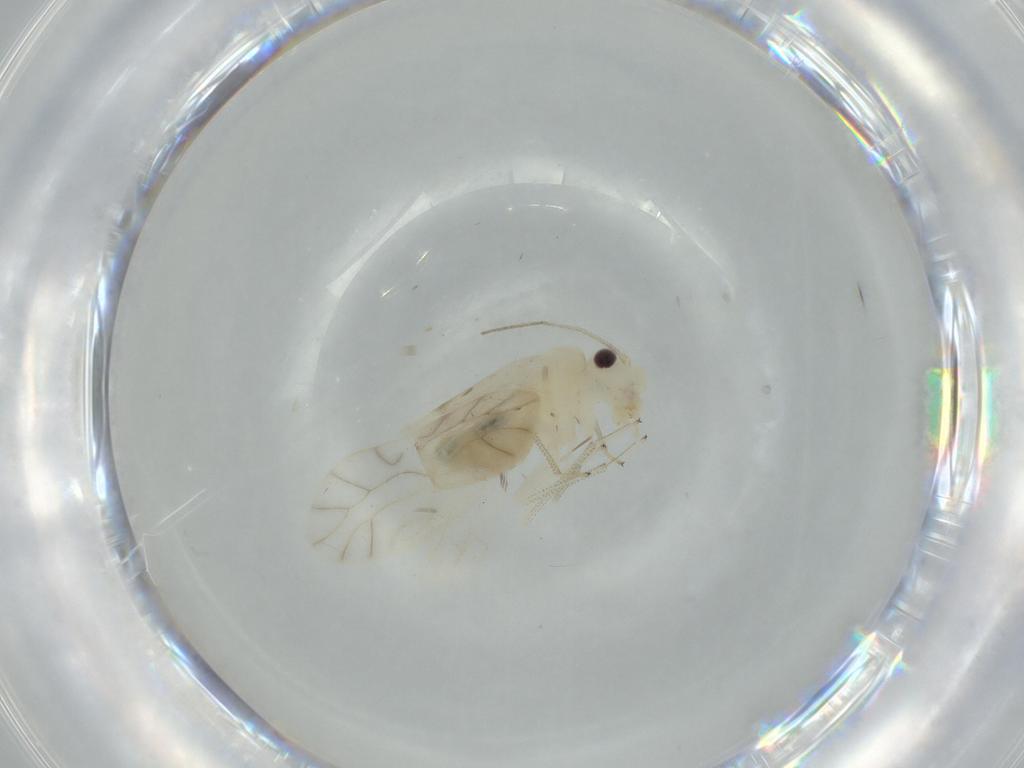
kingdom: Animalia
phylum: Arthropoda
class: Insecta
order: Psocodea
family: Caeciliusidae
